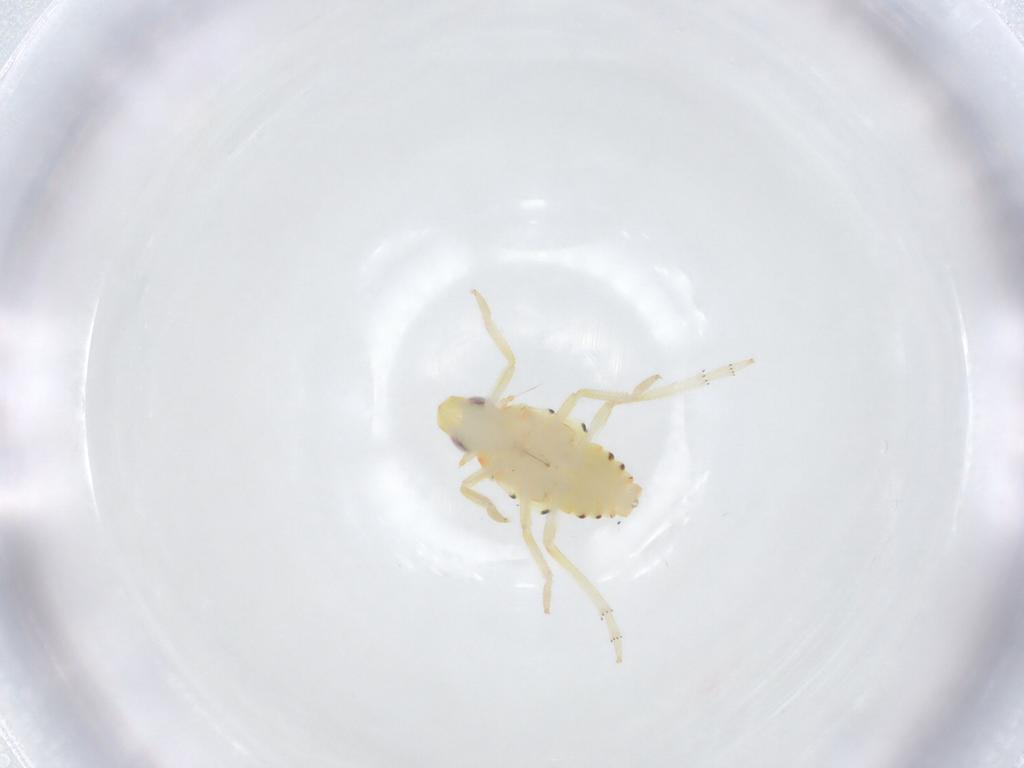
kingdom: Animalia
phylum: Arthropoda
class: Insecta
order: Hemiptera
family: Tropiduchidae
